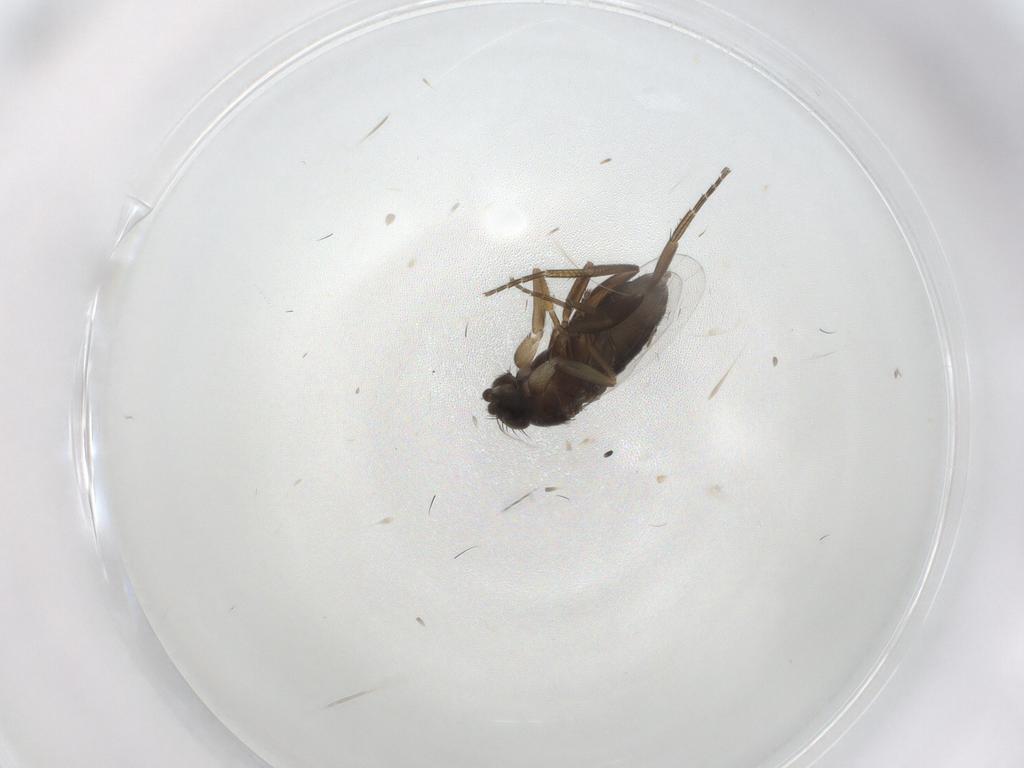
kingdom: Animalia
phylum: Arthropoda
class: Insecta
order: Diptera
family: Phoridae
